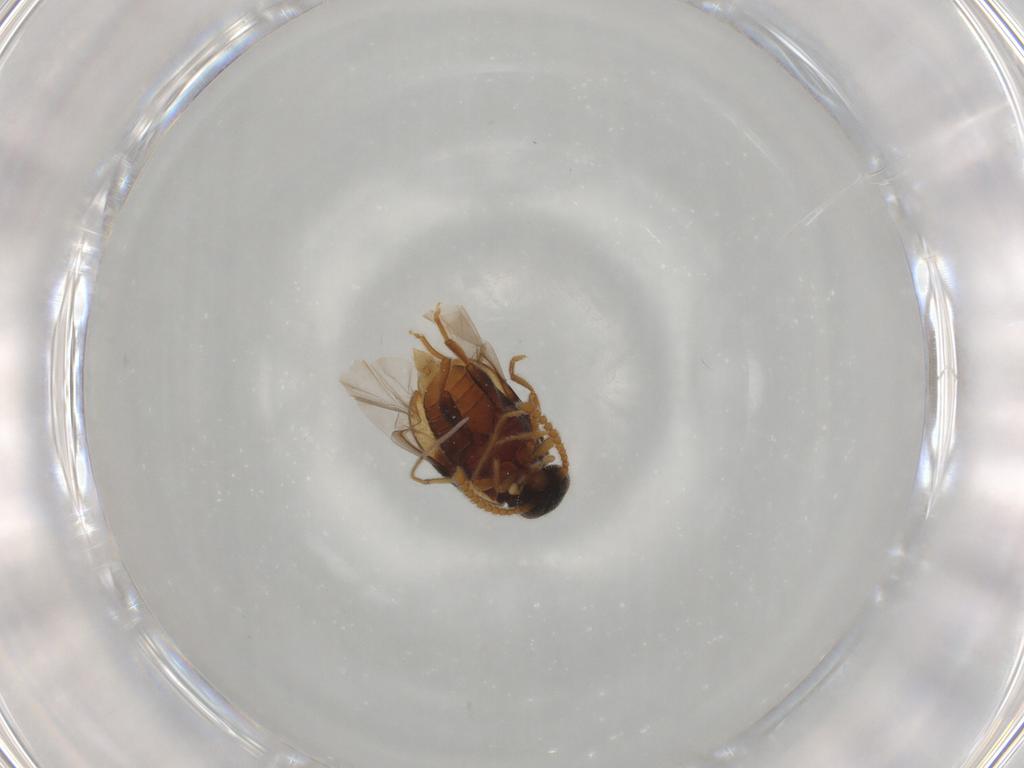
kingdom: Animalia
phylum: Arthropoda
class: Insecta
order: Coleoptera
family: Aderidae
